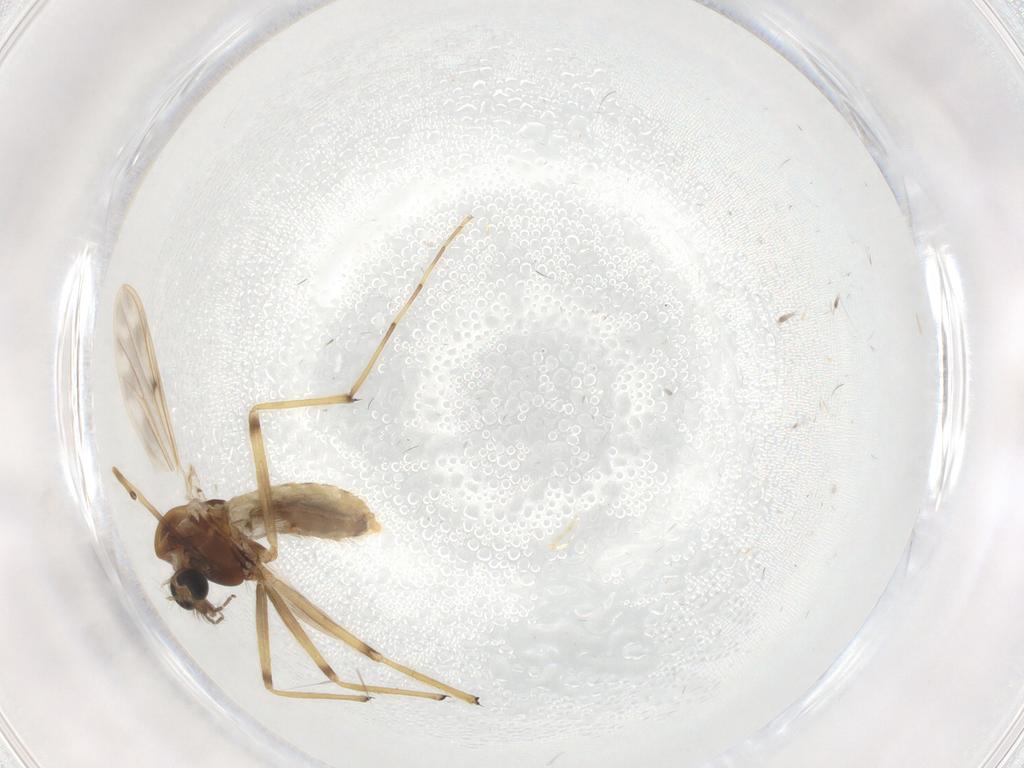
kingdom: Animalia
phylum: Arthropoda
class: Insecta
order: Diptera
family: Chironomidae
